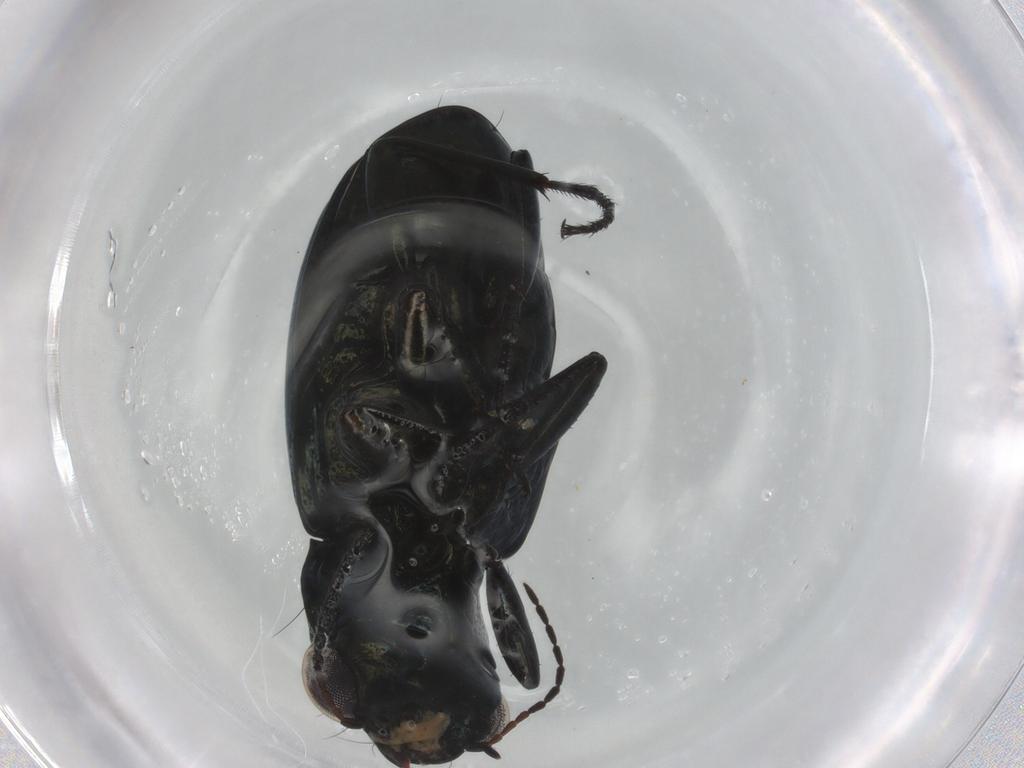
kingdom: Animalia
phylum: Arthropoda
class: Insecta
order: Coleoptera
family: Carabidae
